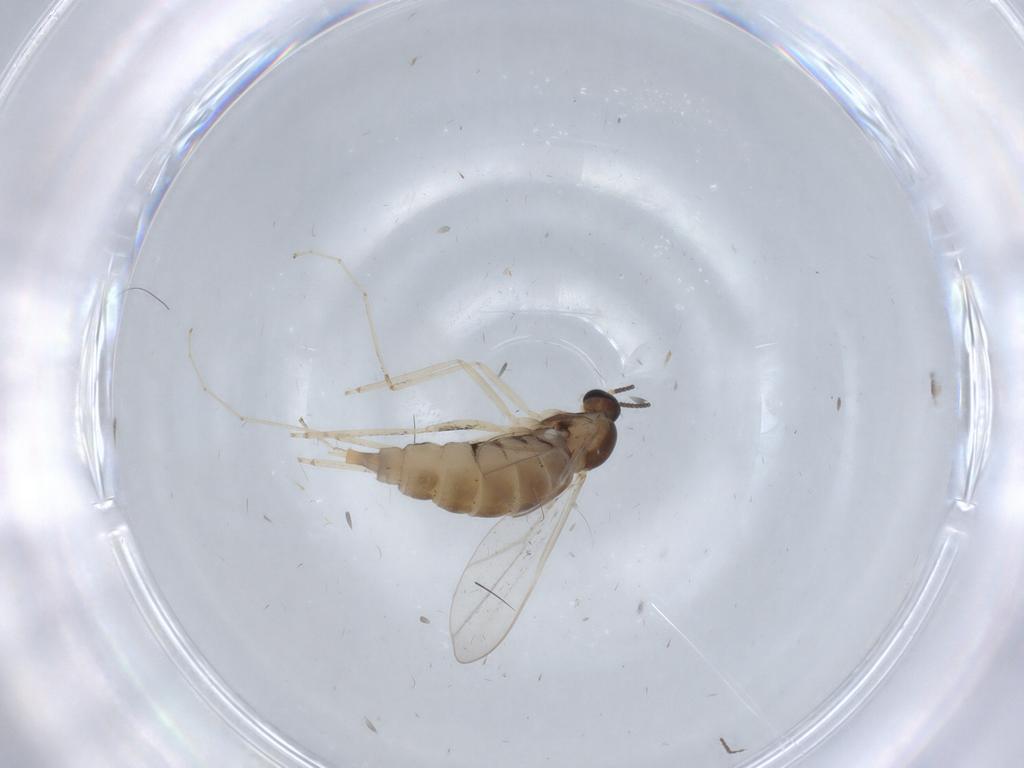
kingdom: Animalia
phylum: Arthropoda
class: Insecta
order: Diptera
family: Cecidomyiidae
